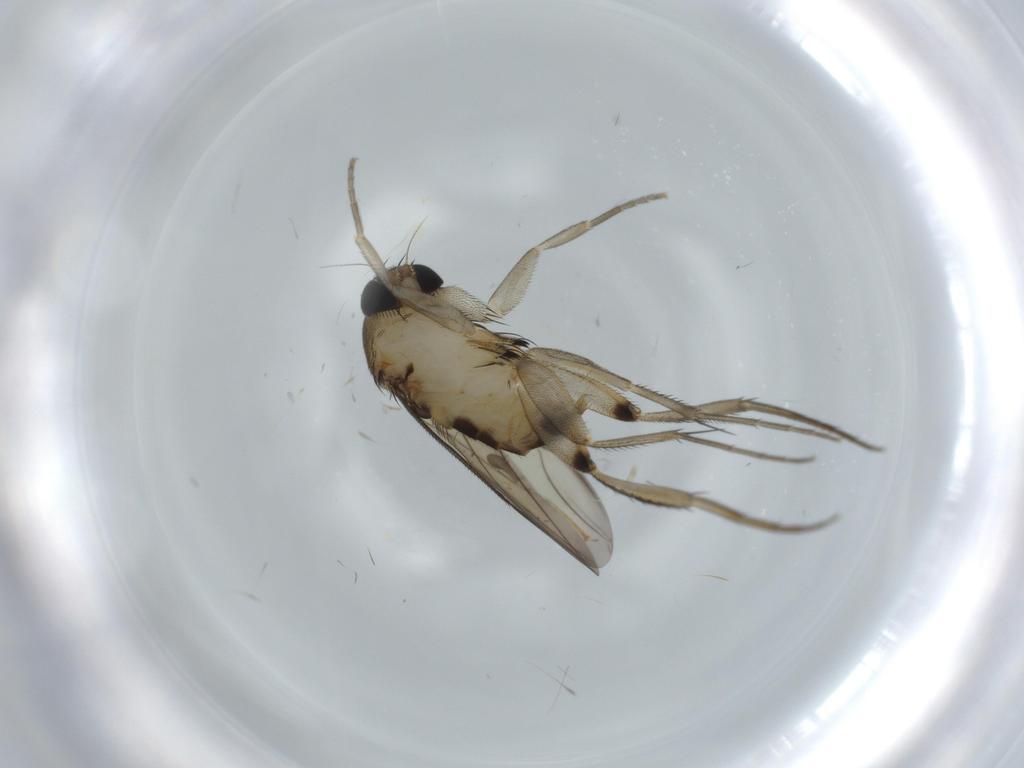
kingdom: Animalia
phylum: Arthropoda
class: Insecta
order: Diptera
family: Phoridae
